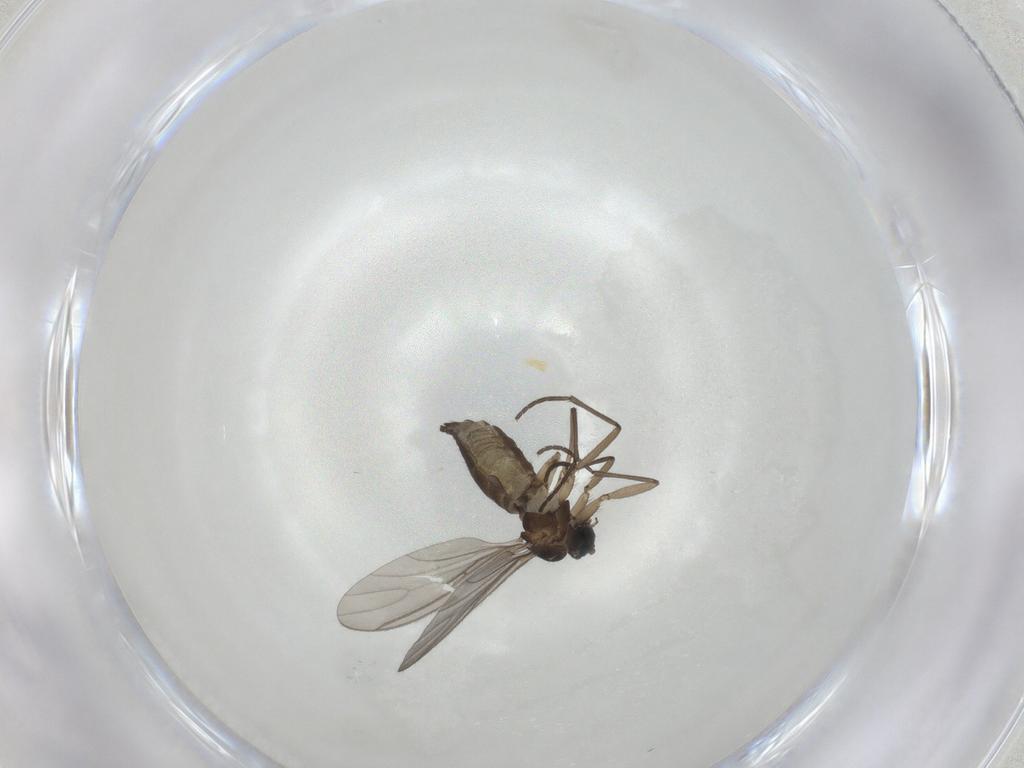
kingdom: Animalia
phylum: Arthropoda
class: Insecta
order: Diptera
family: Sciaridae
